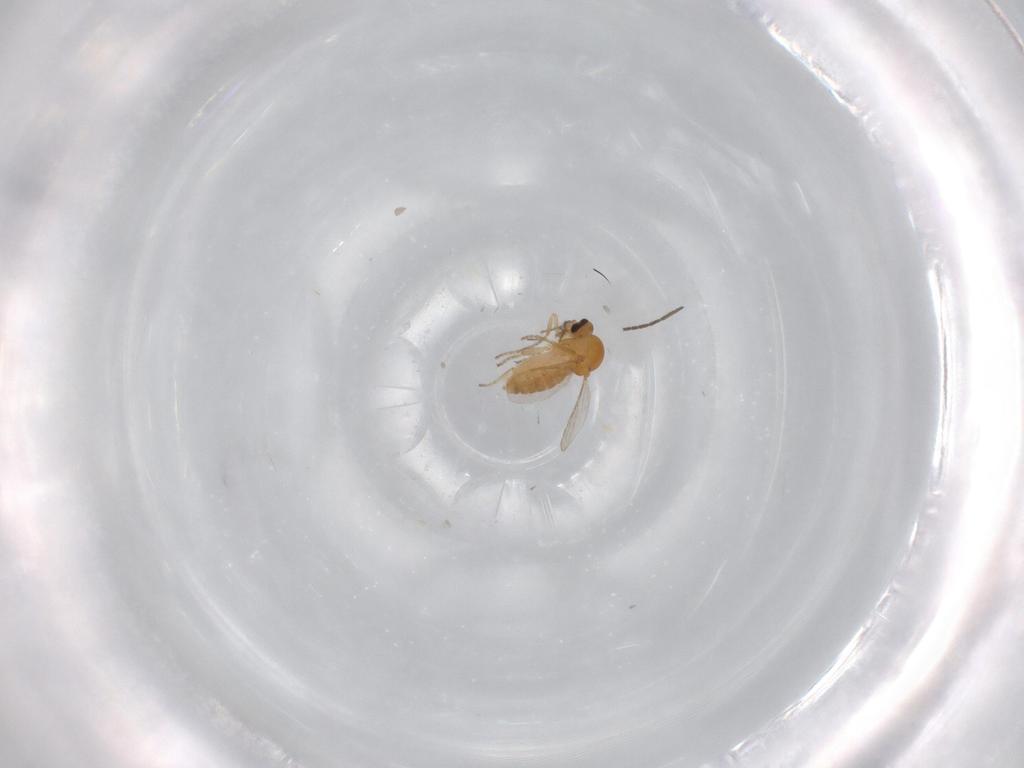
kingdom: Animalia
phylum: Arthropoda
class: Insecta
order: Diptera
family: Ceratopogonidae
